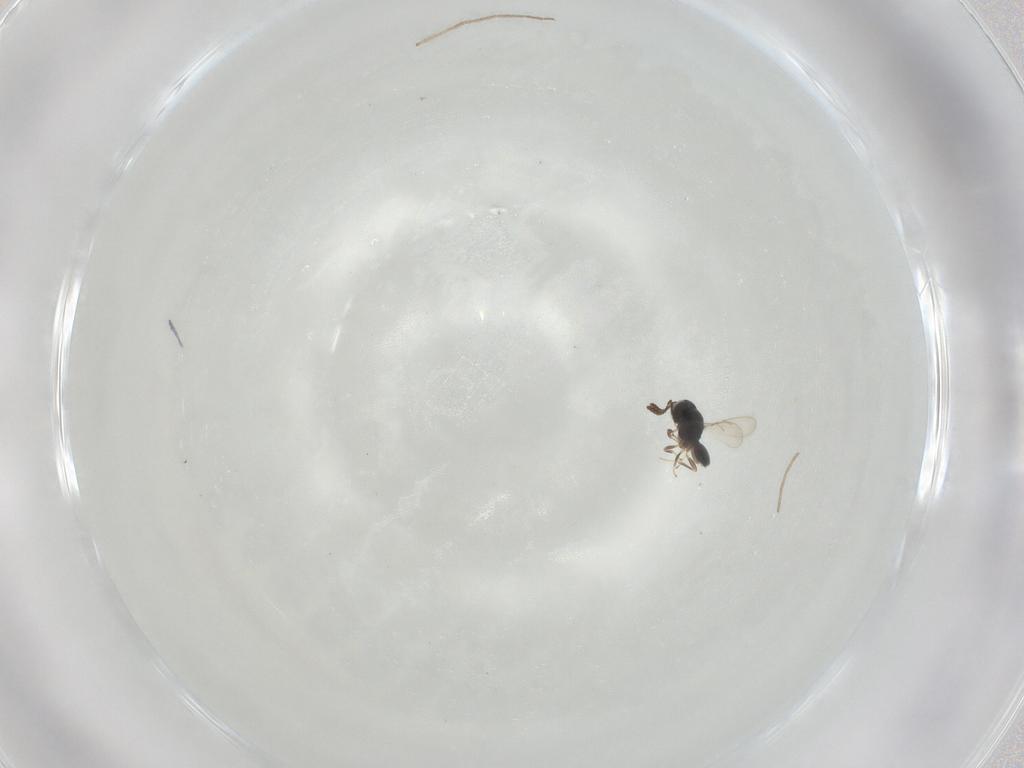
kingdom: Animalia
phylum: Arthropoda
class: Insecta
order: Hymenoptera
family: Scelionidae
